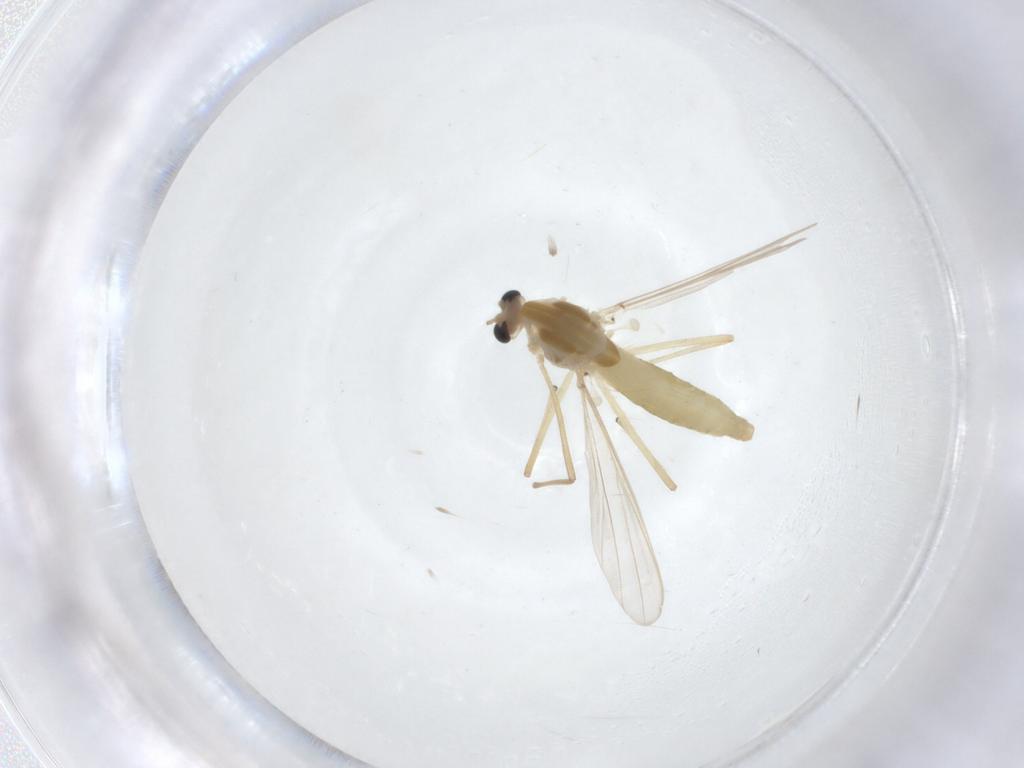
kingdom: Animalia
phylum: Arthropoda
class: Insecta
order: Diptera
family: Chironomidae
